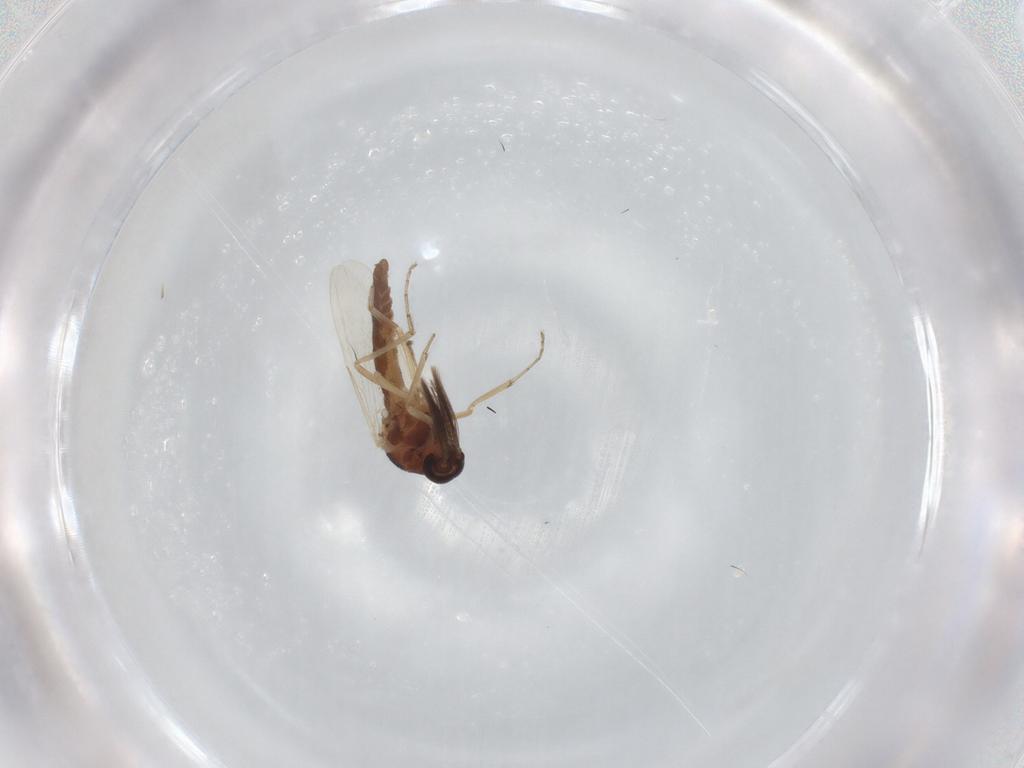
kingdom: Animalia
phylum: Arthropoda
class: Insecta
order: Diptera
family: Ceratopogonidae
